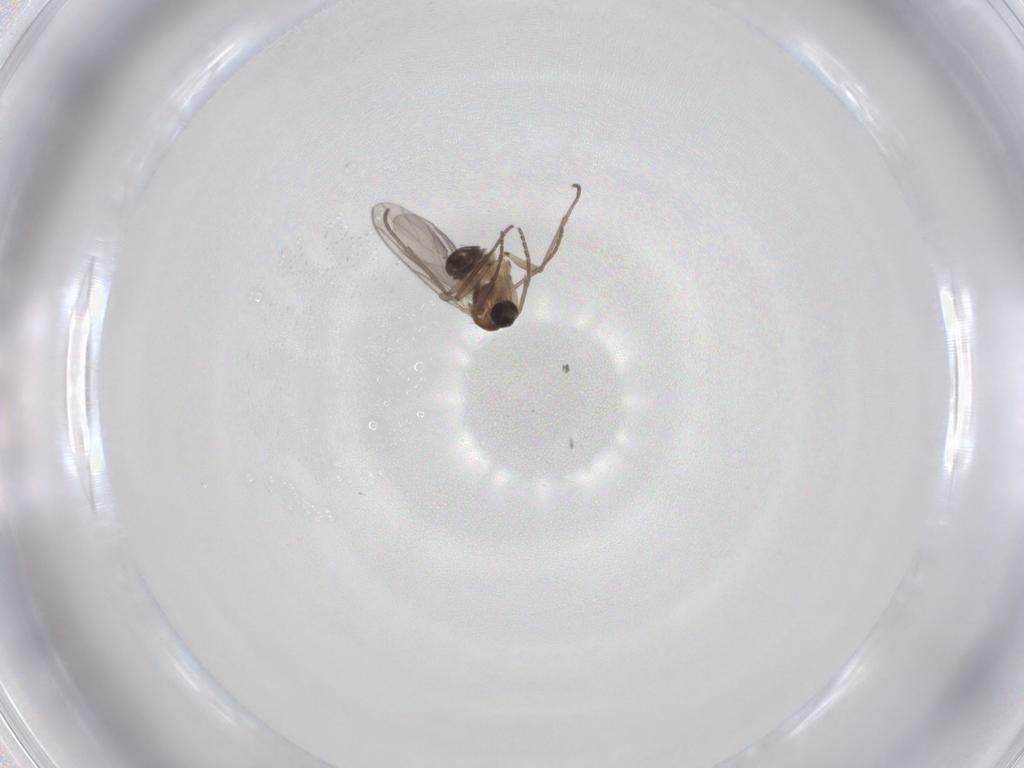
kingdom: Animalia
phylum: Arthropoda
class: Insecta
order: Diptera
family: Dolichopodidae
